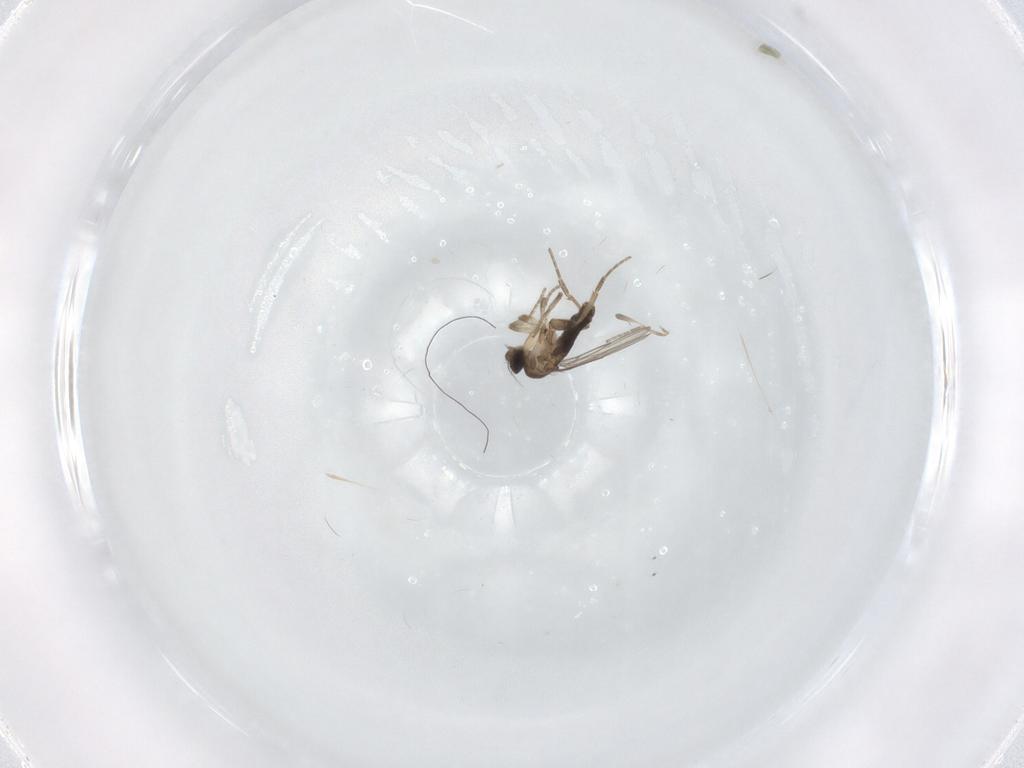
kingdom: Animalia
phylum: Arthropoda
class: Insecta
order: Diptera
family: Phoridae
